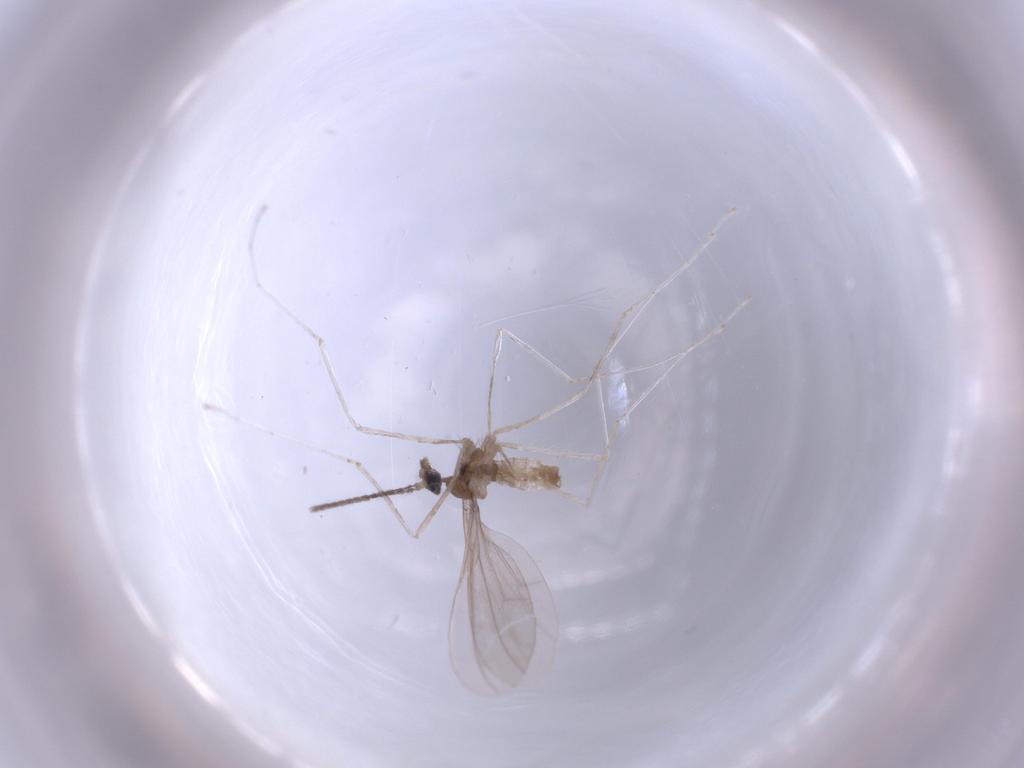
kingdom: Animalia
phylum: Arthropoda
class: Insecta
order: Diptera
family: Cecidomyiidae
